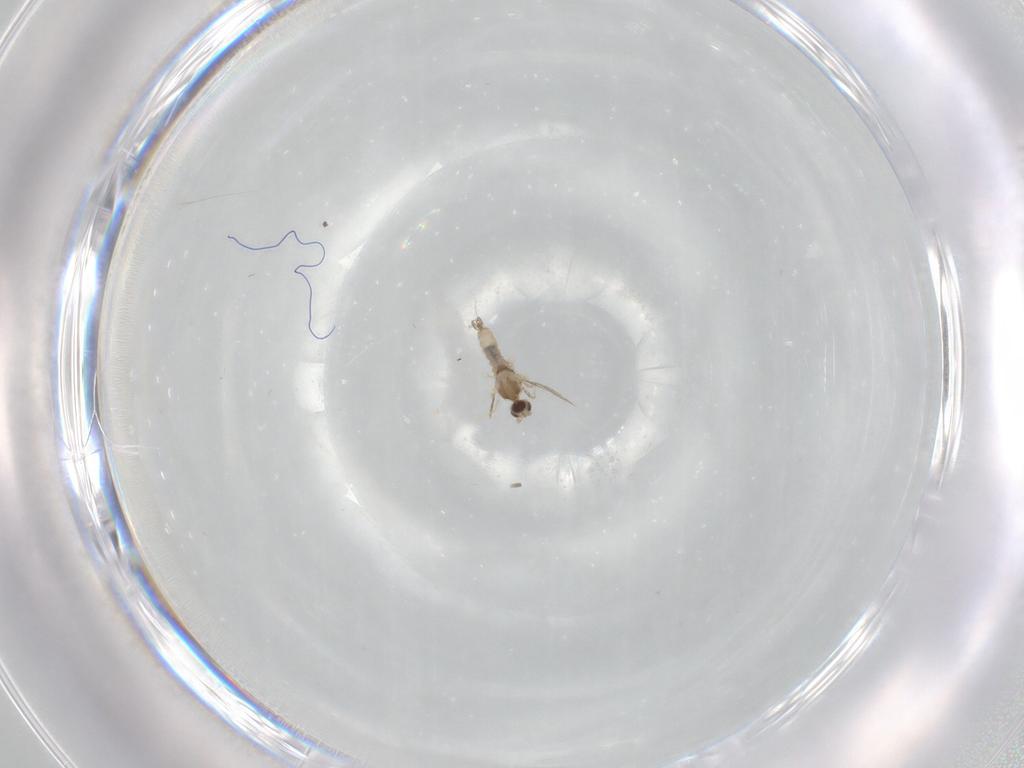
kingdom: Animalia
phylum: Arthropoda
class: Insecta
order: Diptera
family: Cecidomyiidae
